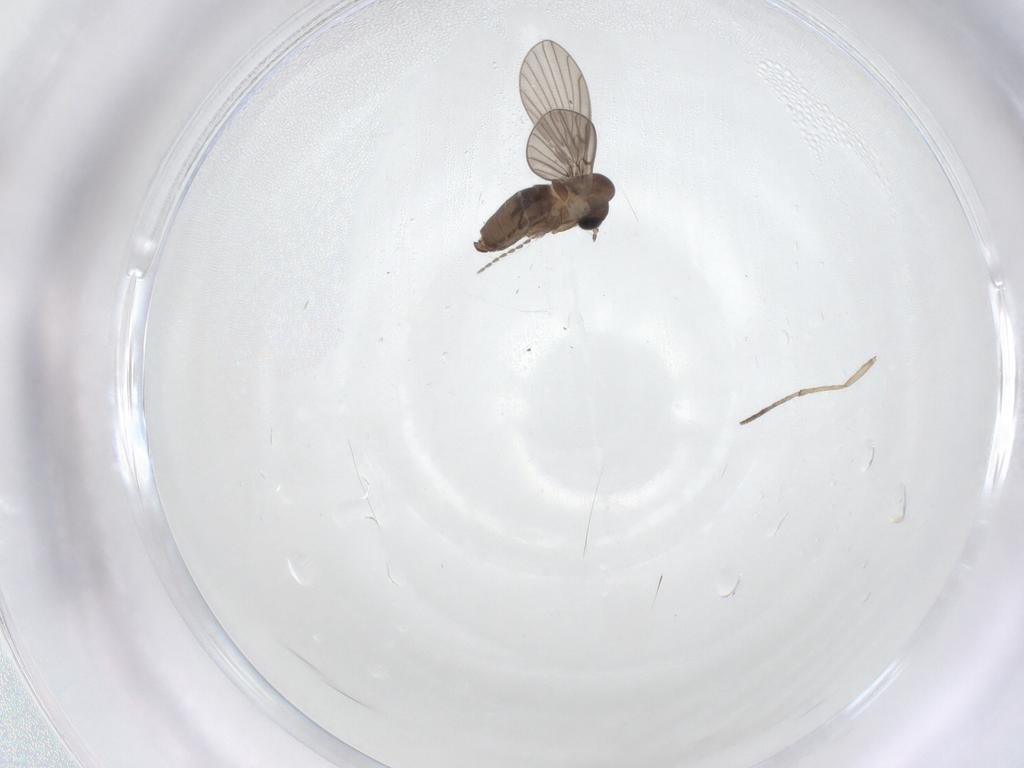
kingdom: Animalia
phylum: Arthropoda
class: Insecta
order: Diptera
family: Psychodidae
